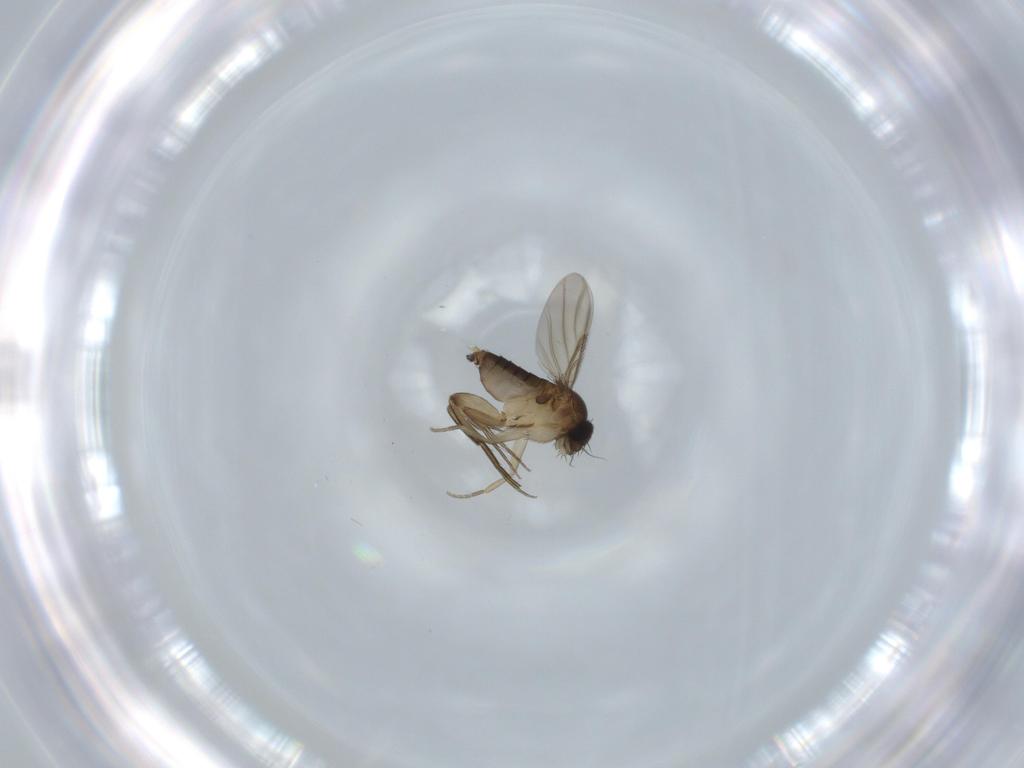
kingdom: Animalia
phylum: Arthropoda
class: Insecta
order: Diptera
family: Phoridae
